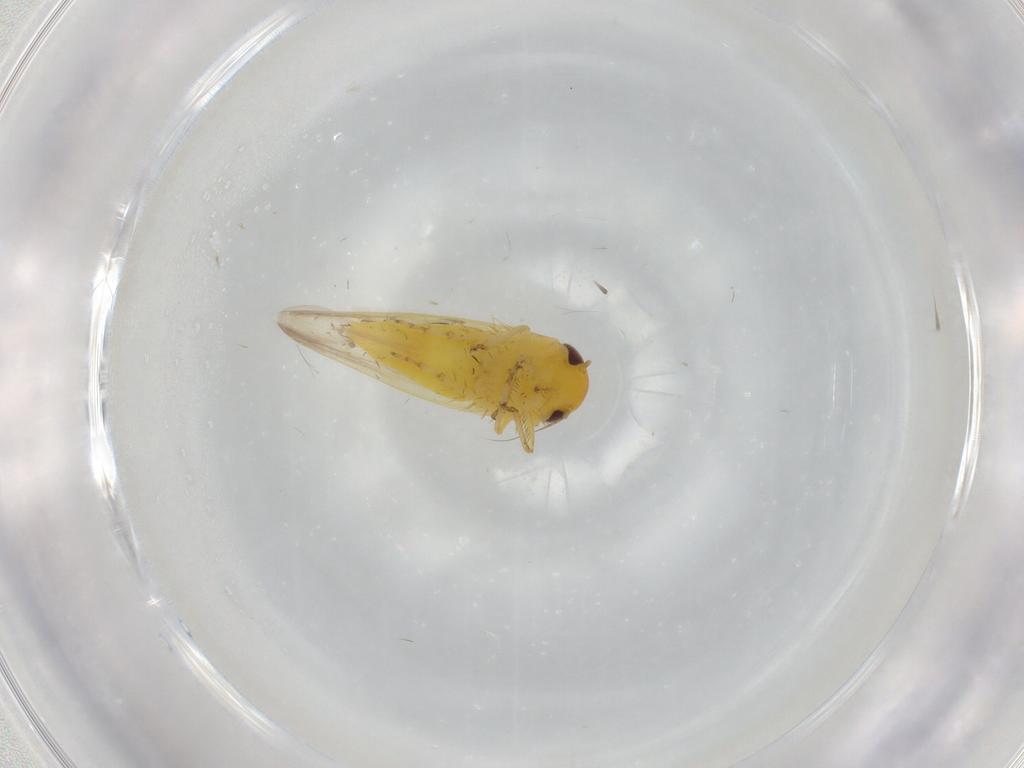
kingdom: Animalia
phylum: Arthropoda
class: Insecta
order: Hemiptera
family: Cicadellidae
